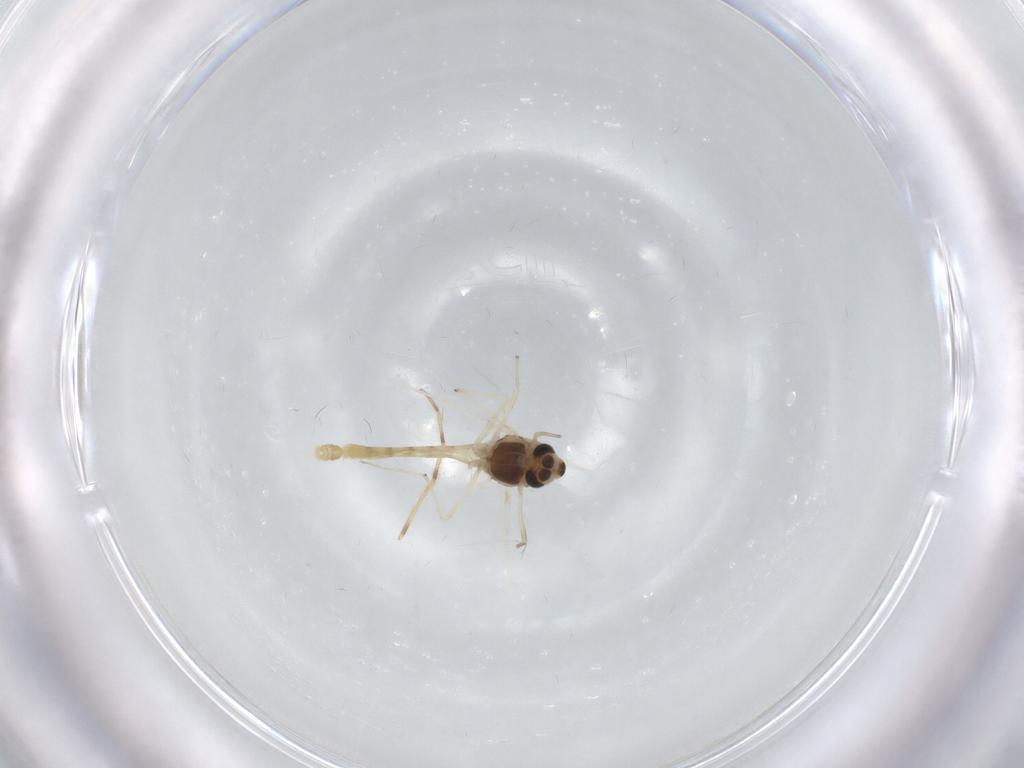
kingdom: Animalia
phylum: Arthropoda
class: Insecta
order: Diptera
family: Chironomidae
